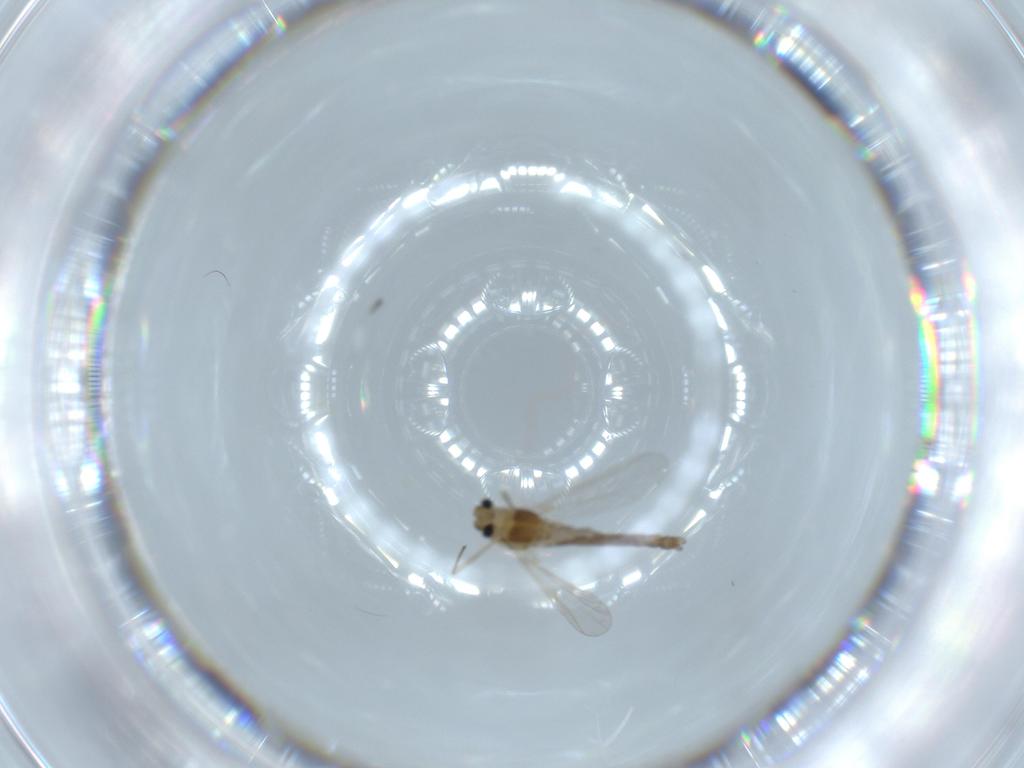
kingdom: Animalia
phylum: Arthropoda
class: Insecta
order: Diptera
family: Chironomidae
